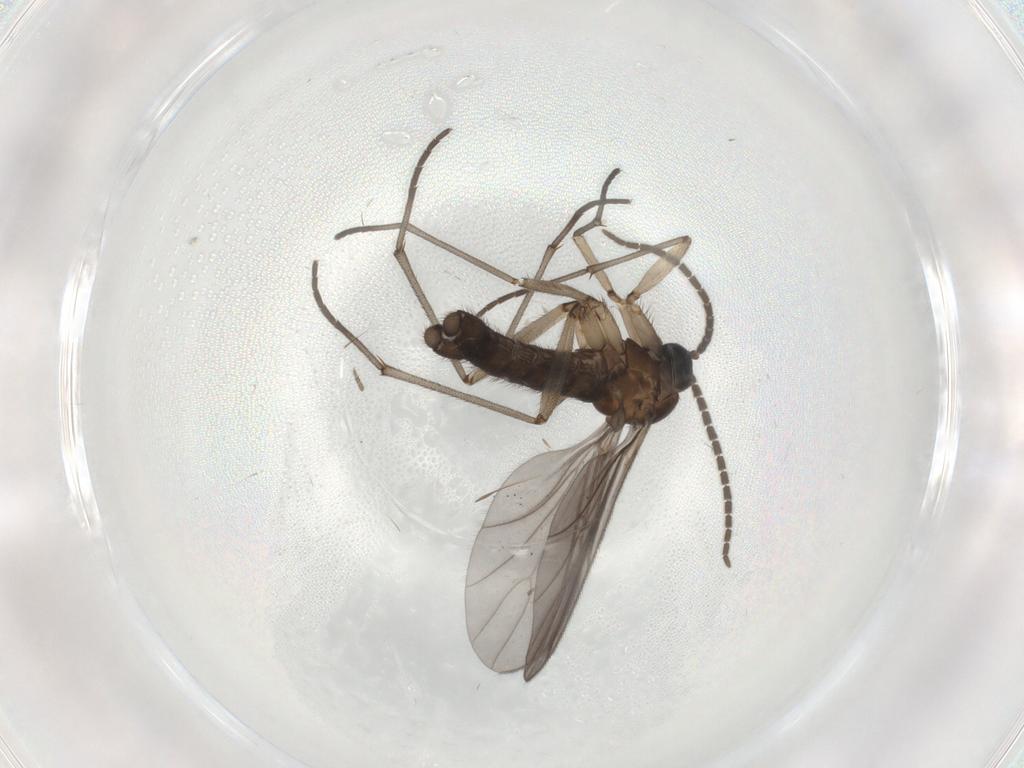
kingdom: Animalia
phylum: Arthropoda
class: Insecta
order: Diptera
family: Sciaridae
